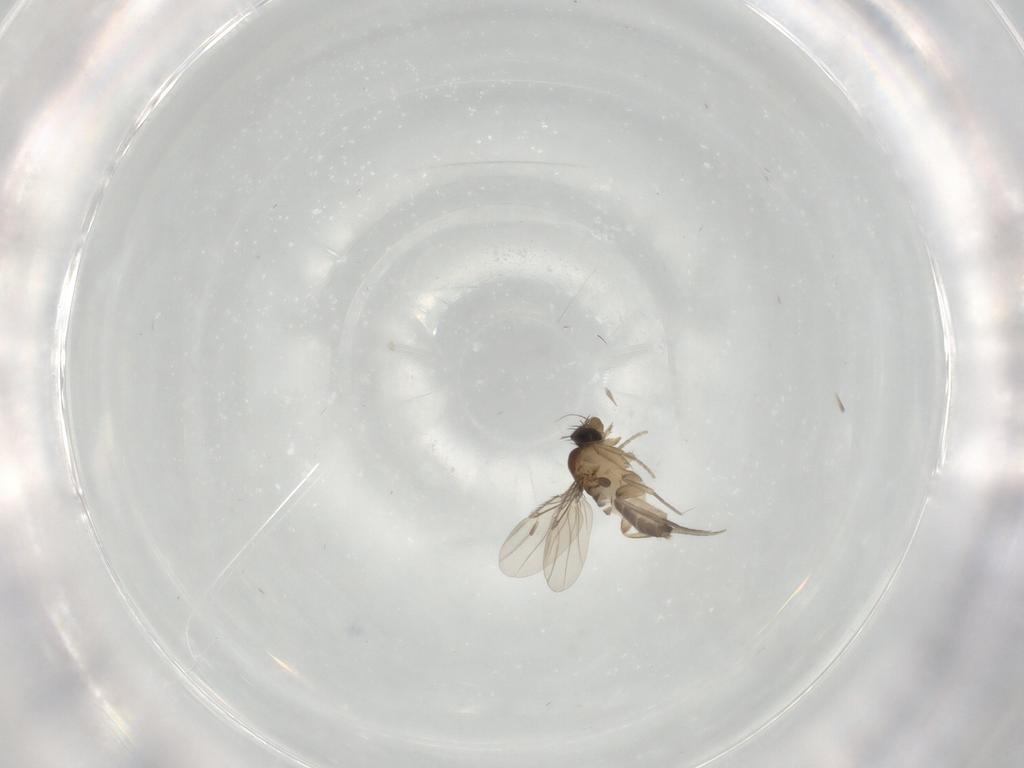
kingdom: Animalia
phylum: Arthropoda
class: Insecta
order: Diptera
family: Phoridae
